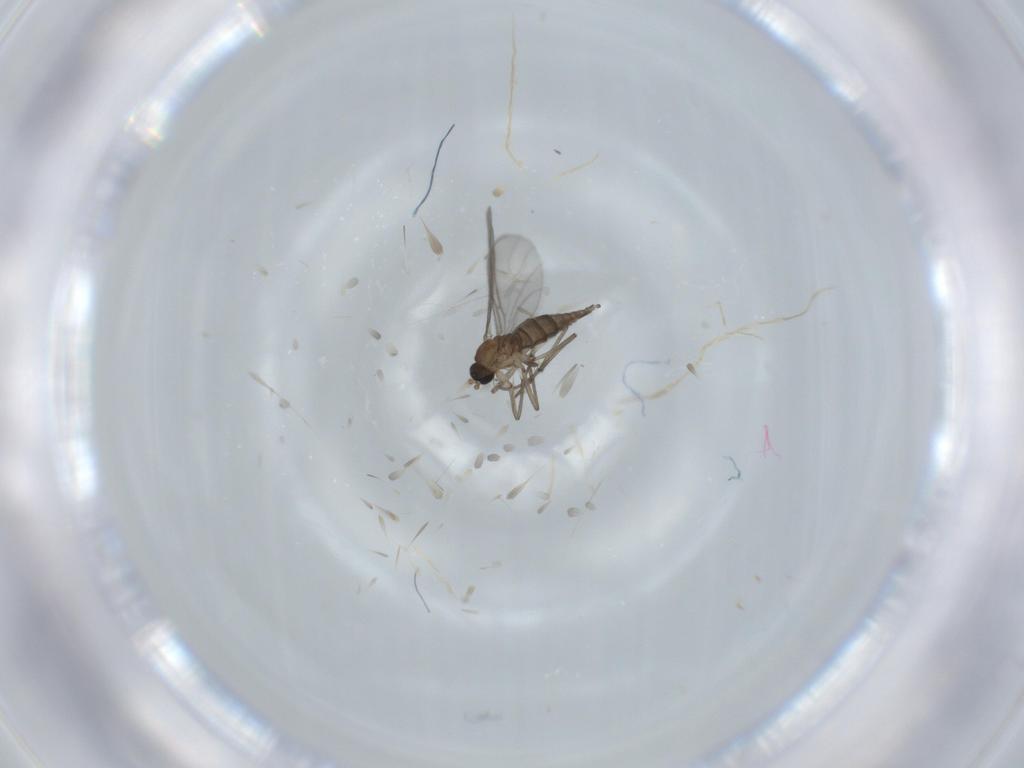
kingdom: Animalia
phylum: Arthropoda
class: Insecta
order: Diptera
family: Sciaridae
